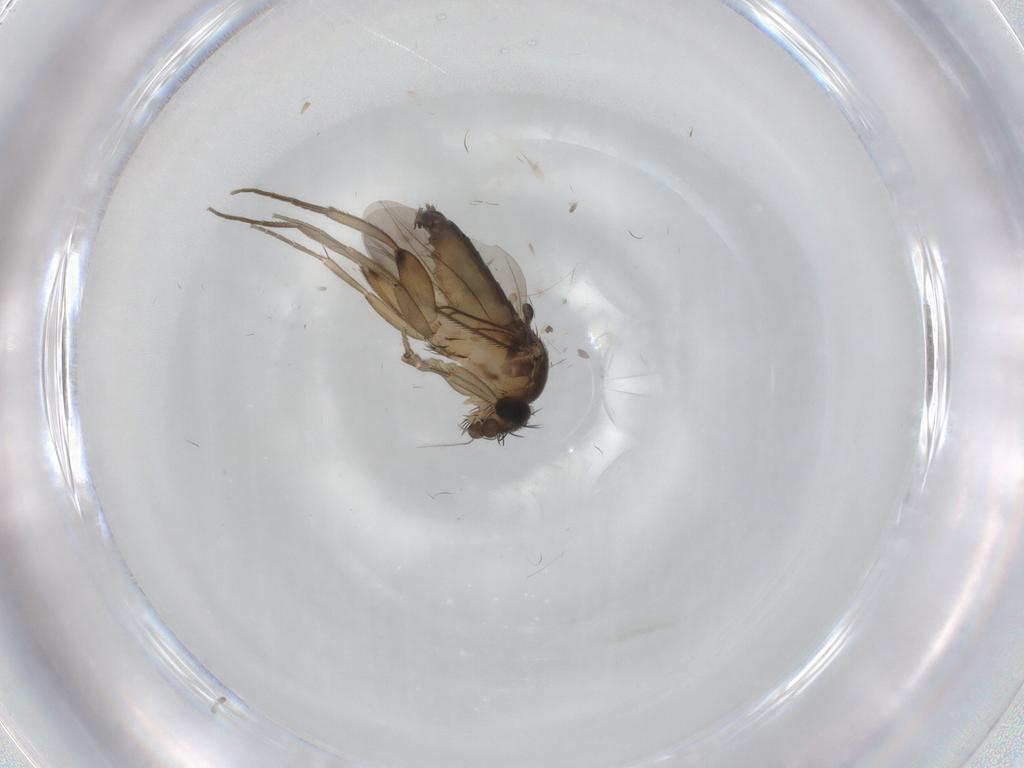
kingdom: Animalia
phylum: Arthropoda
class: Insecta
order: Diptera
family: Phoridae
